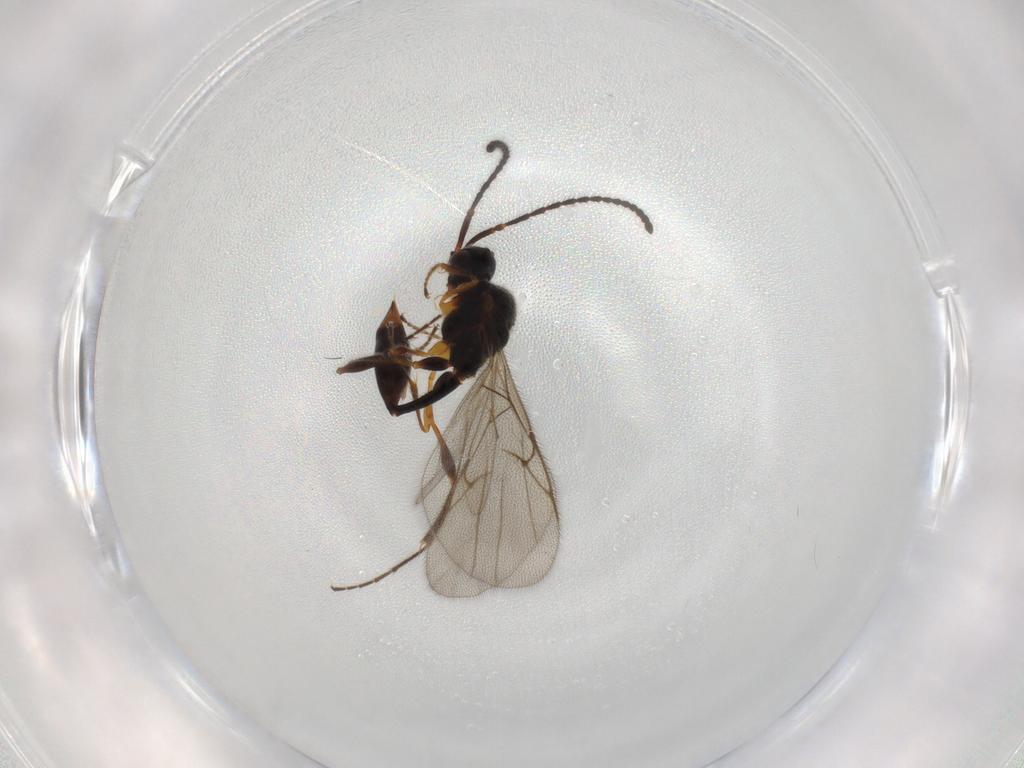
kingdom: Animalia
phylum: Arthropoda
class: Insecta
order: Hymenoptera
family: Diapriidae
